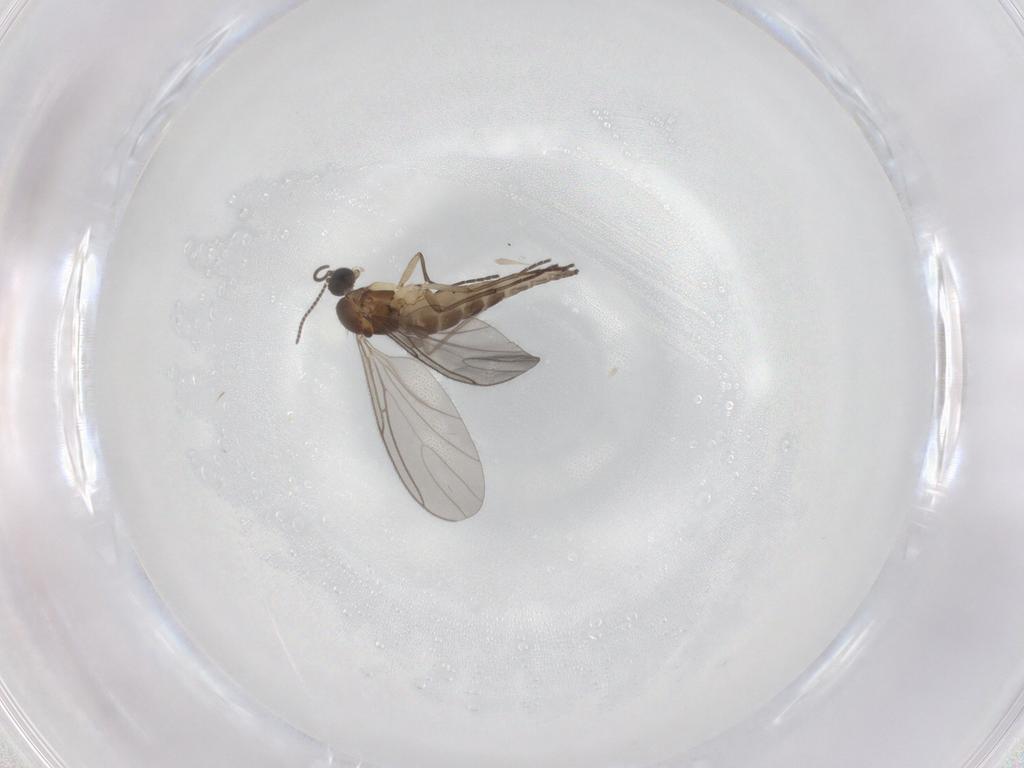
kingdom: Animalia
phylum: Arthropoda
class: Insecta
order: Diptera
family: Sciaridae
